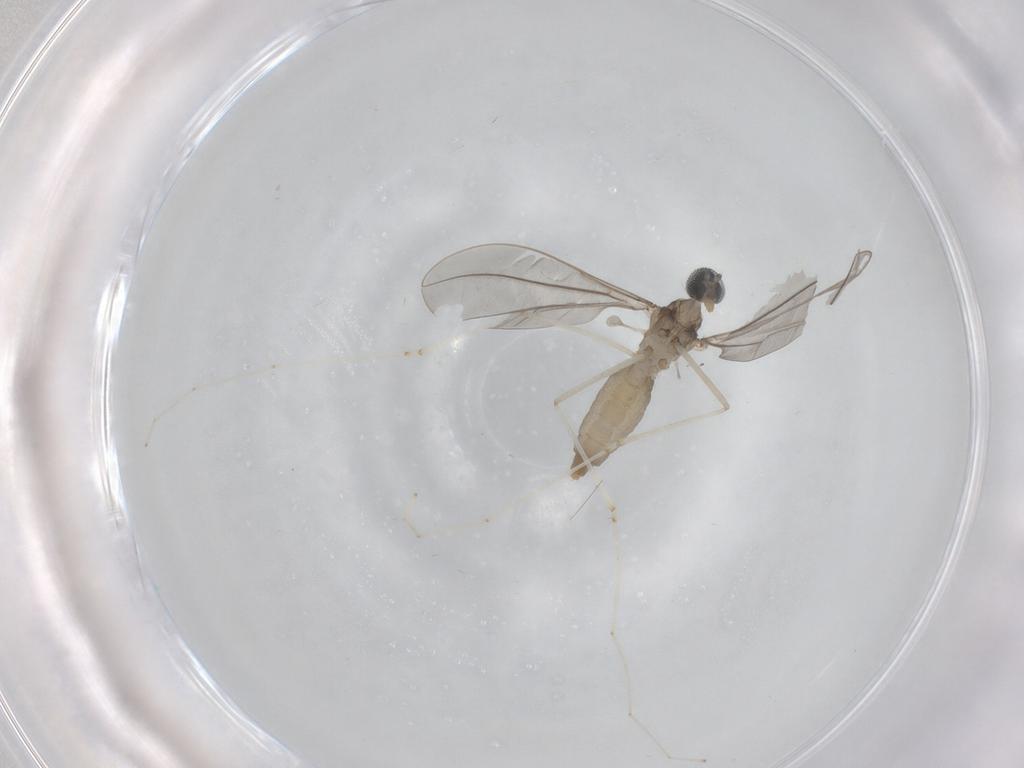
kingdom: Animalia
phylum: Arthropoda
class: Insecta
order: Diptera
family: Cecidomyiidae
